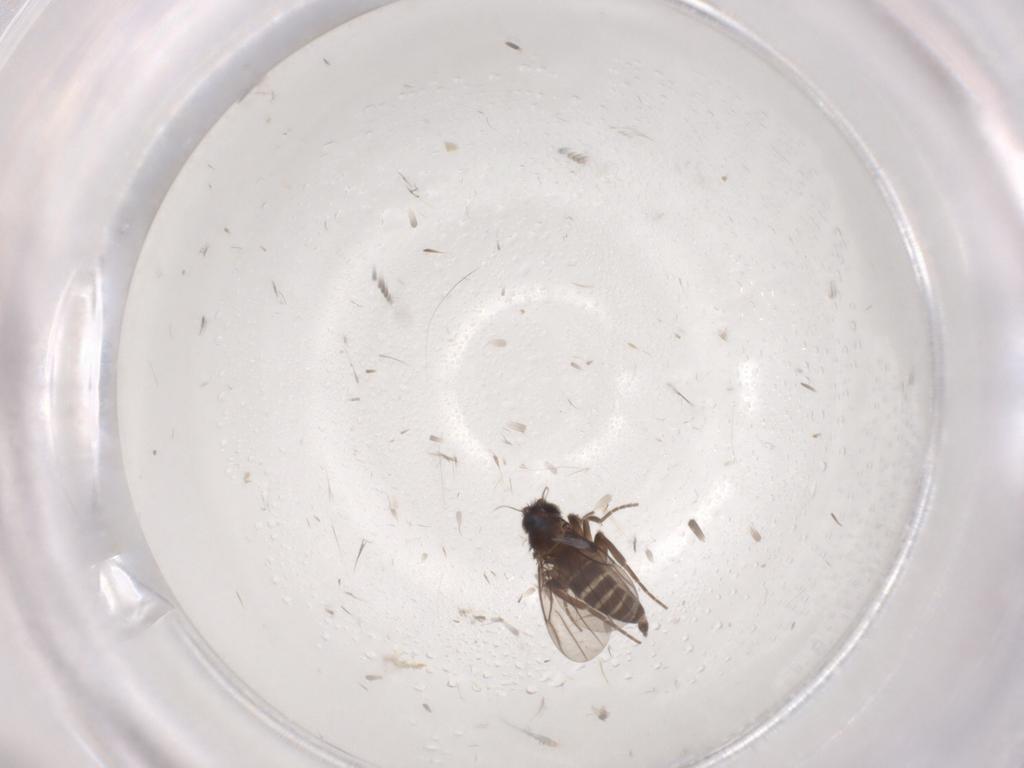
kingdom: Animalia
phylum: Arthropoda
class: Insecta
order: Diptera
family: Phoridae
